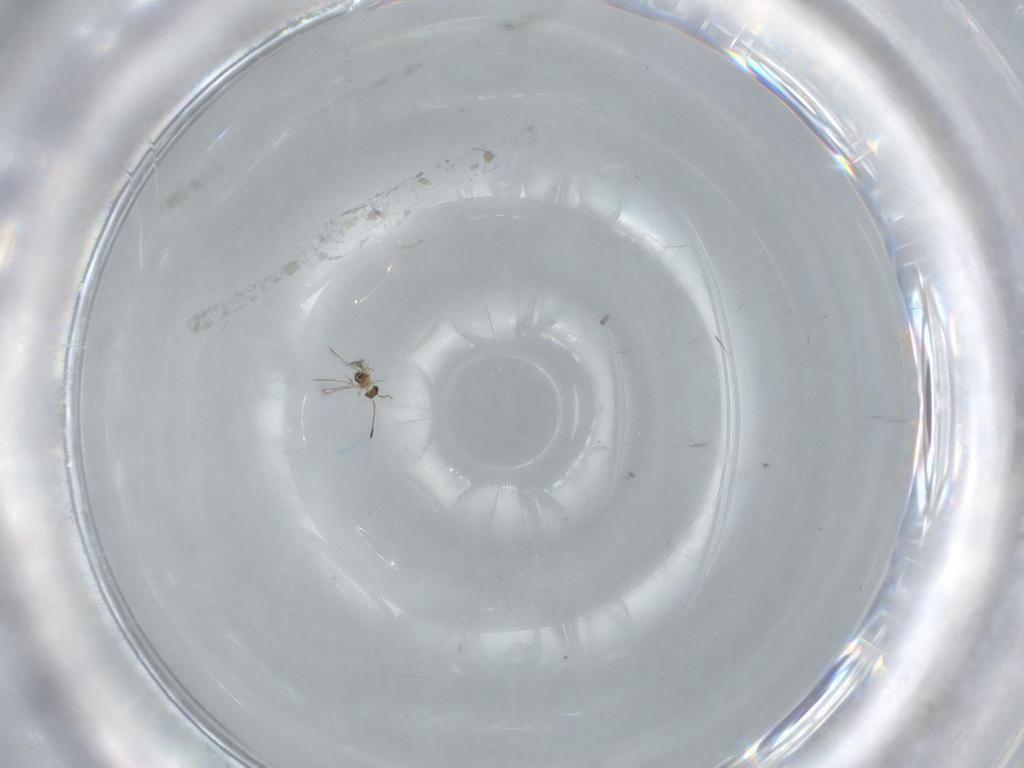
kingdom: Animalia
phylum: Arthropoda
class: Insecta
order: Hymenoptera
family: Mymaridae
